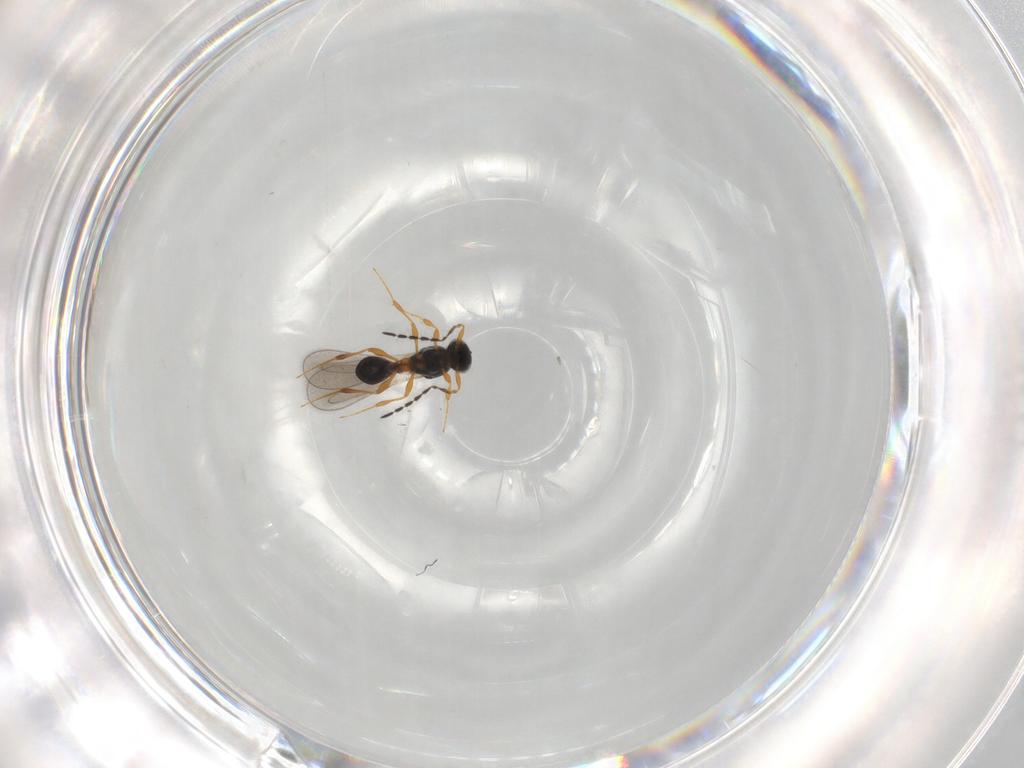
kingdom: Animalia
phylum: Arthropoda
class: Insecta
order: Hymenoptera
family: Platygastridae
